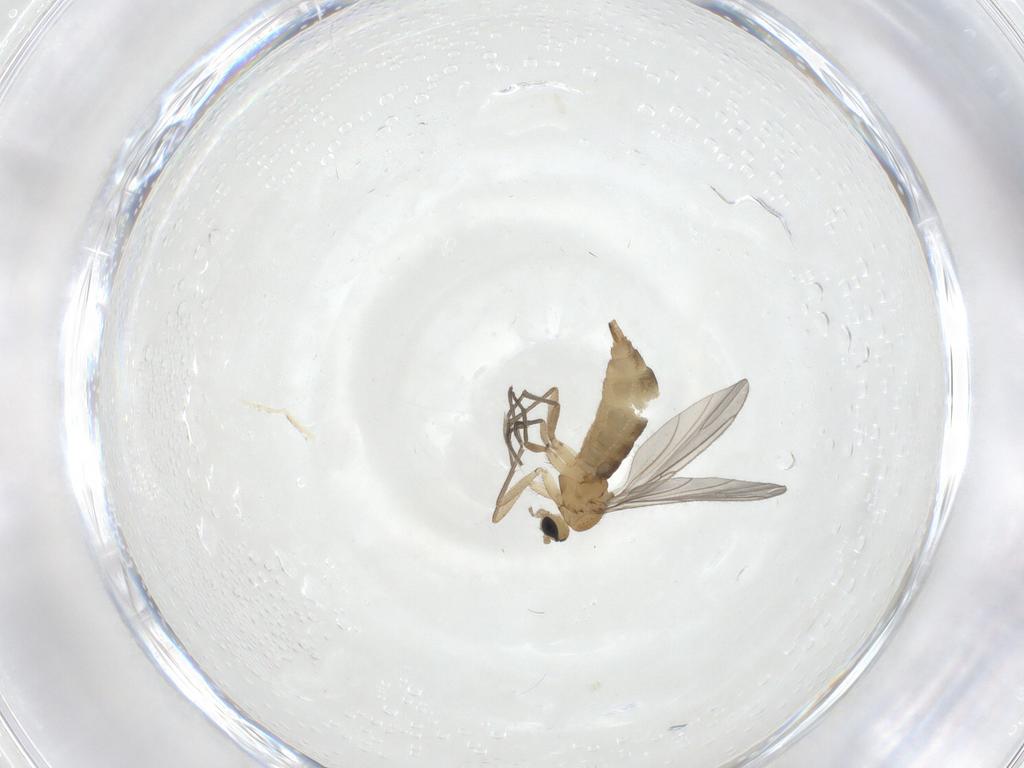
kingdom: Animalia
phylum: Arthropoda
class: Insecta
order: Diptera
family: Sciaridae
